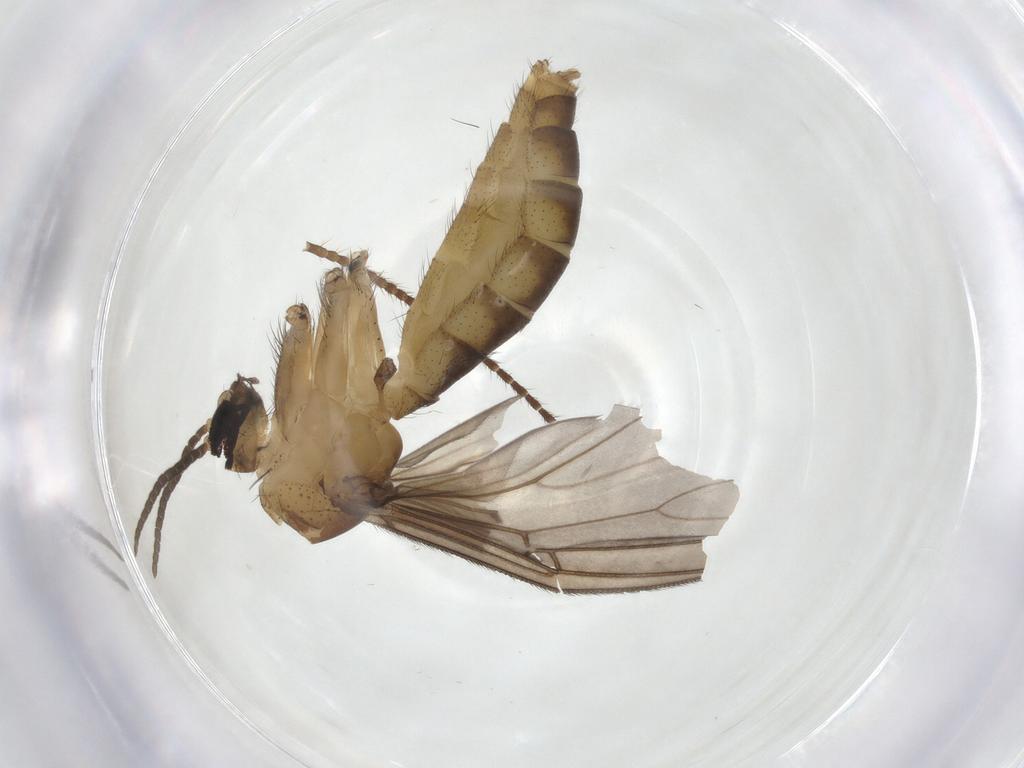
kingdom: Animalia
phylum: Arthropoda
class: Insecta
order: Diptera
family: Mycetophilidae
